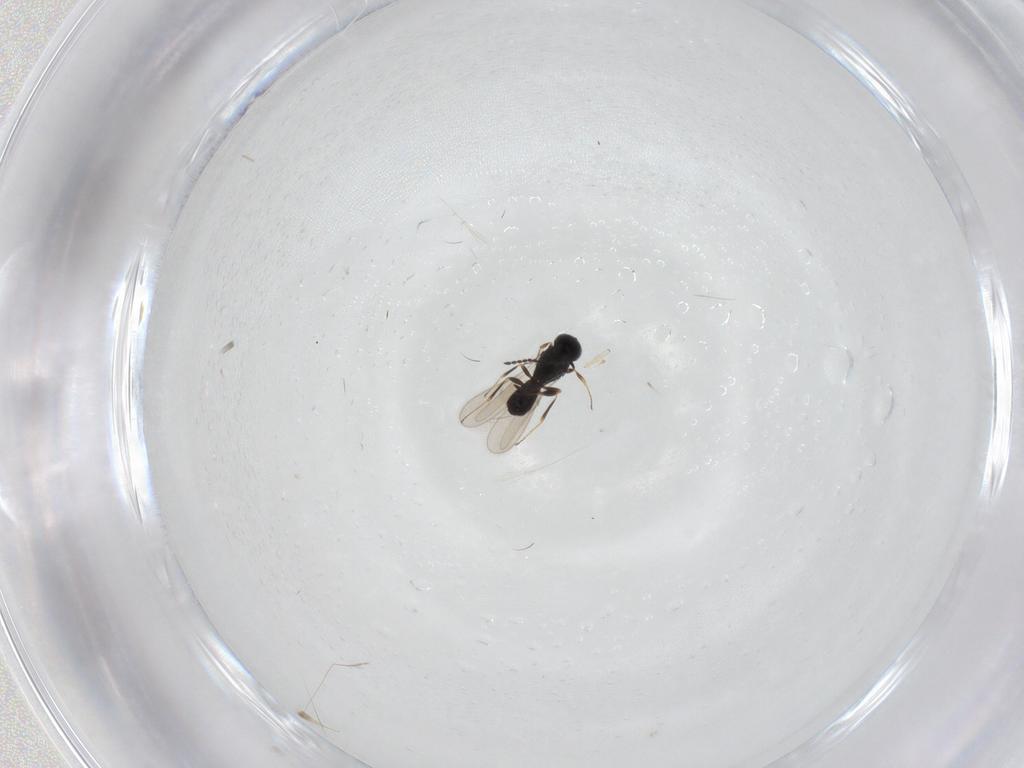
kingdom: Animalia
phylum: Arthropoda
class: Insecta
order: Hymenoptera
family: Scelionidae
